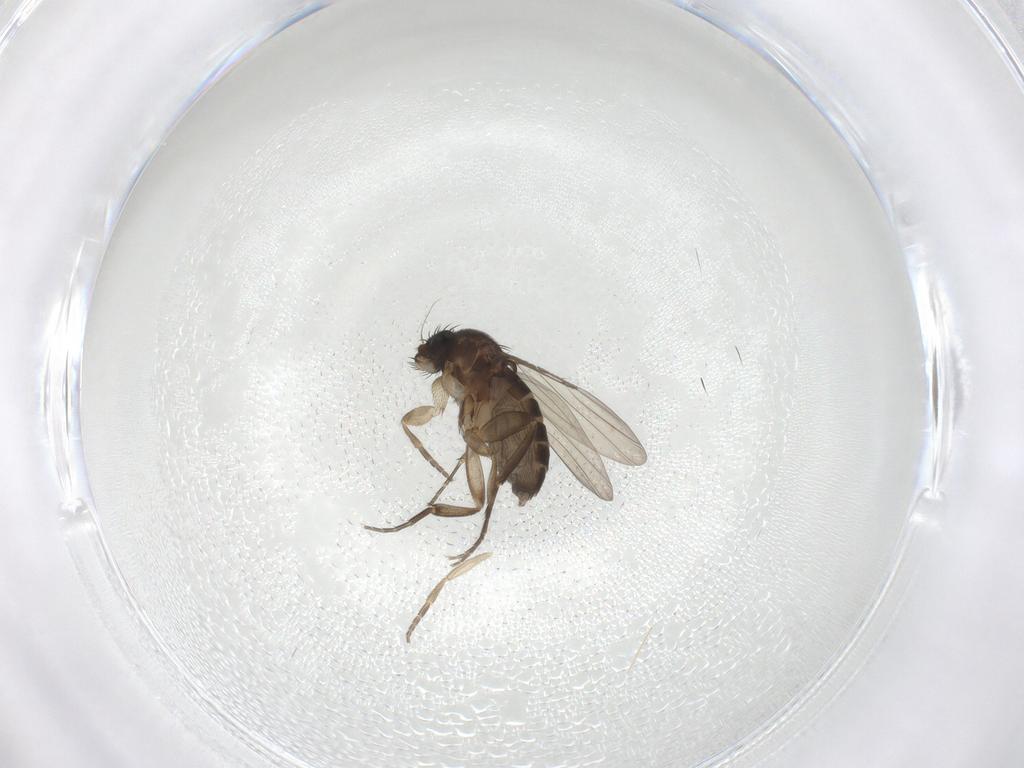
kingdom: Animalia
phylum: Arthropoda
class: Insecta
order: Diptera
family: Phoridae
